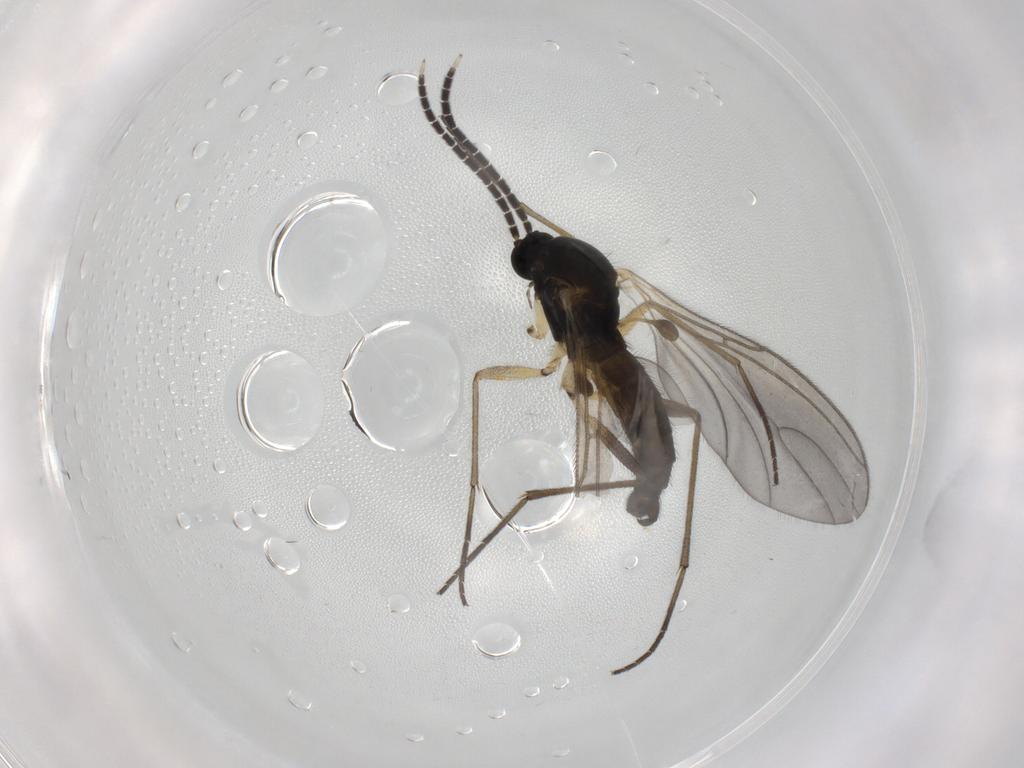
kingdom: Animalia
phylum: Arthropoda
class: Insecta
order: Diptera
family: Sciaridae
